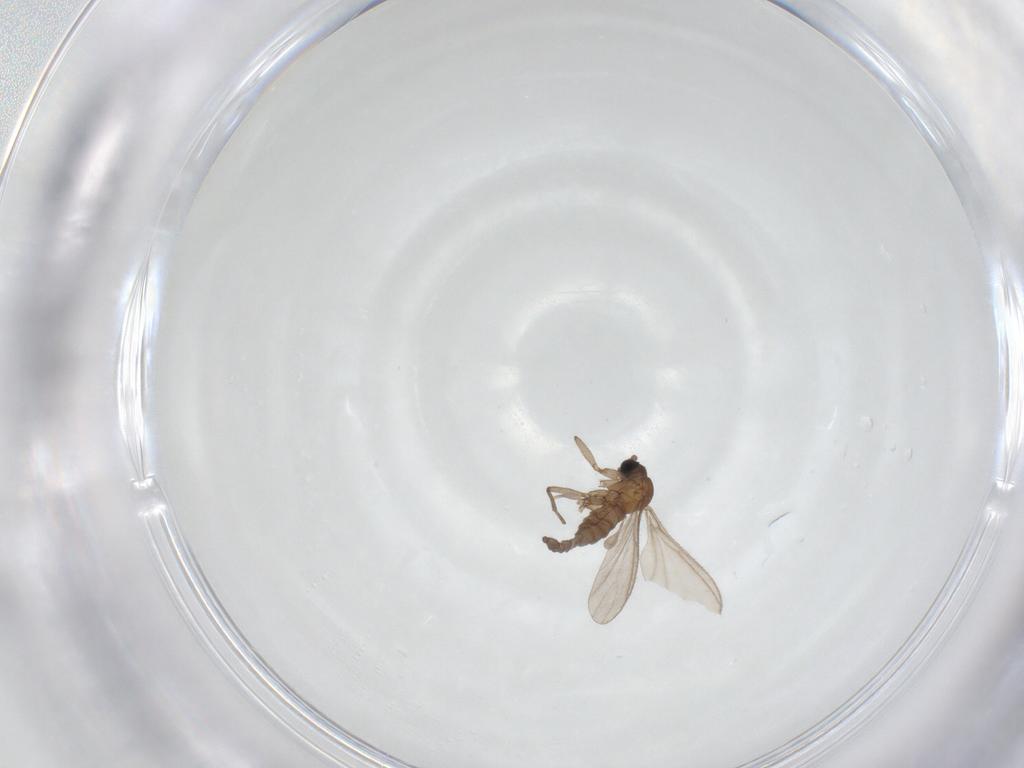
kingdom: Animalia
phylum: Arthropoda
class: Insecta
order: Diptera
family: Sciaridae
